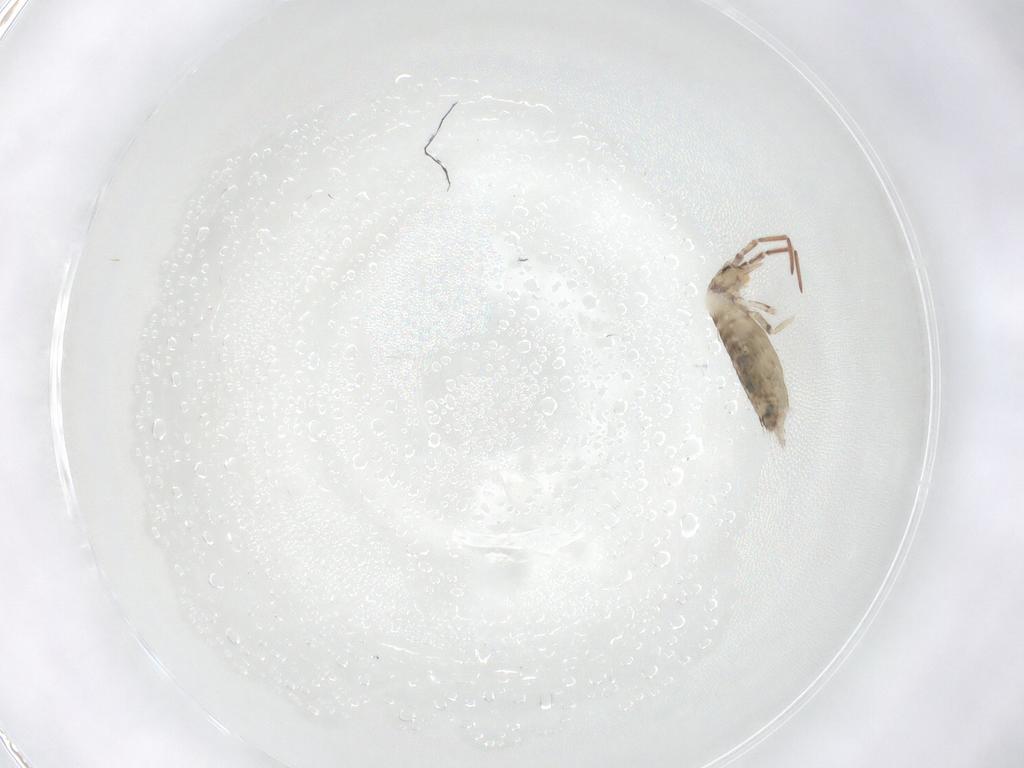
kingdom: Animalia
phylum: Arthropoda
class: Collembola
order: Entomobryomorpha
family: Entomobryidae
